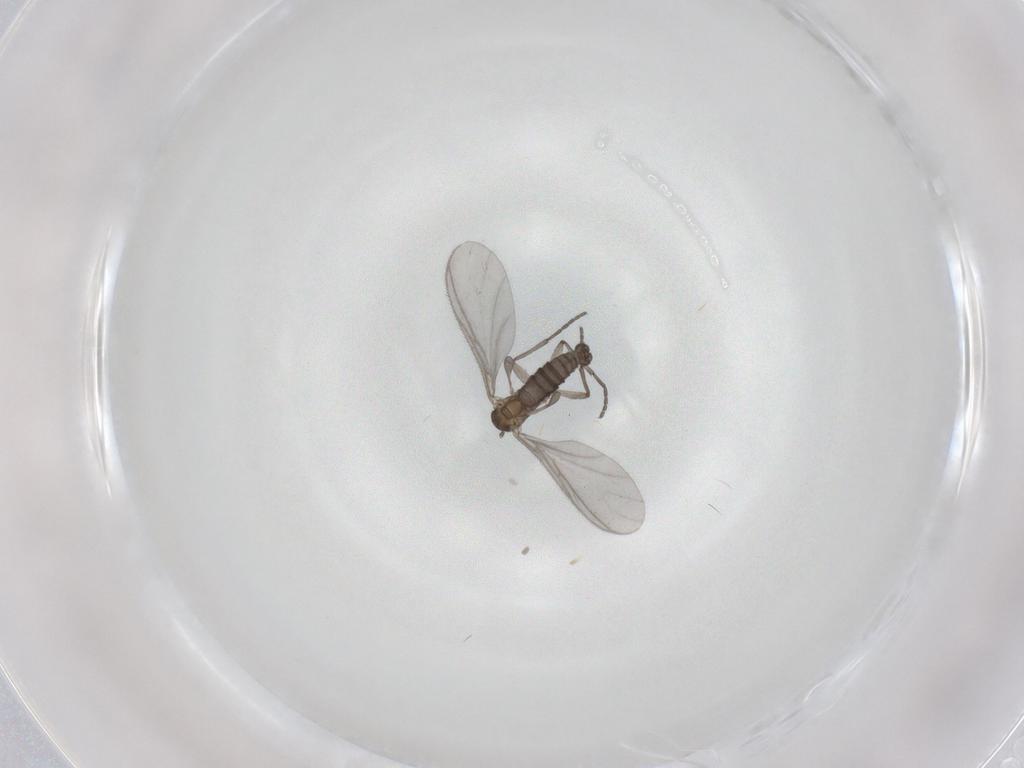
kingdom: Animalia
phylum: Arthropoda
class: Insecta
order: Diptera
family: Sciaridae
